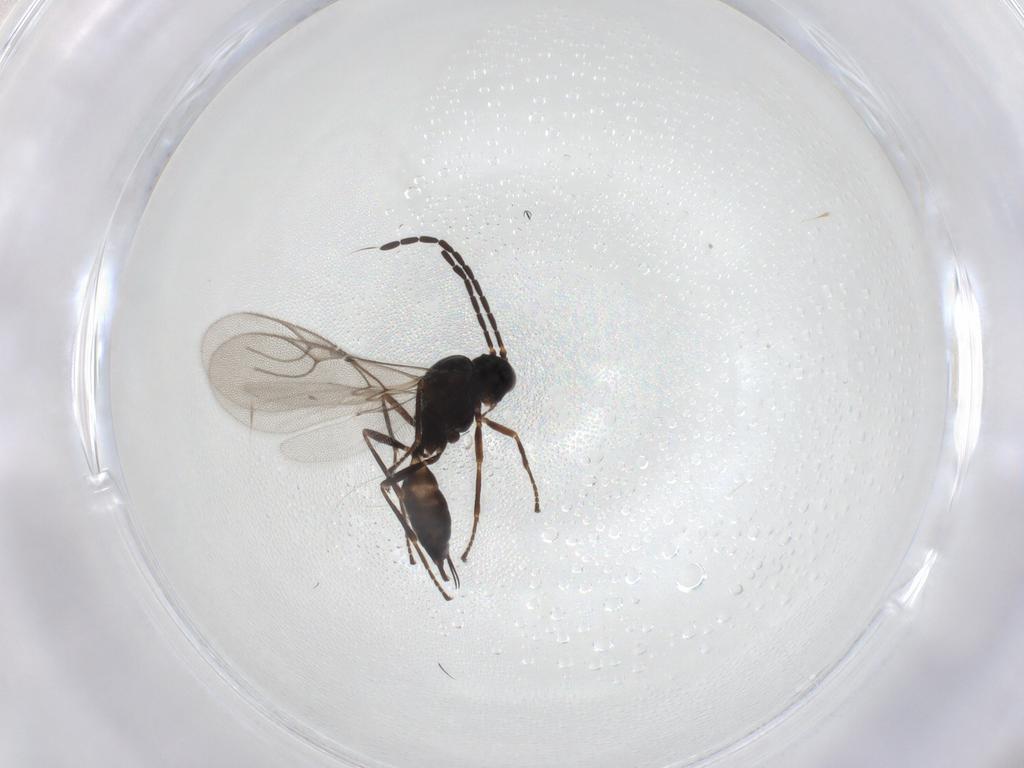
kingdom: Animalia
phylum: Arthropoda
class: Insecta
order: Hymenoptera
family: Braconidae
